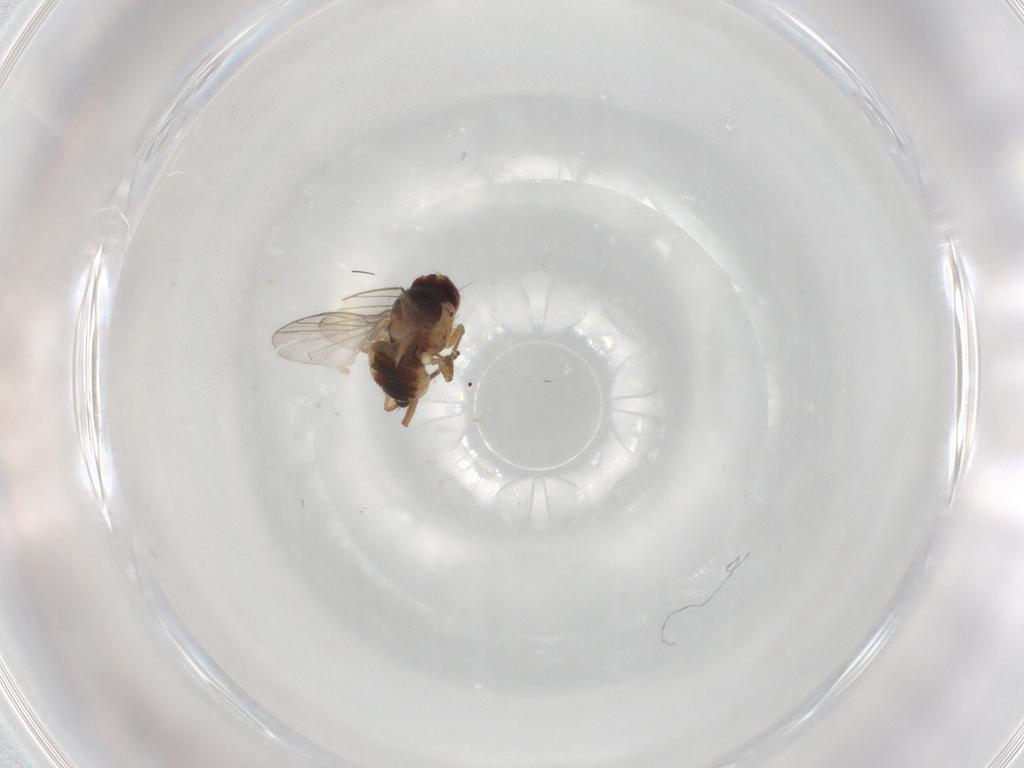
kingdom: Animalia
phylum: Arthropoda
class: Insecta
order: Diptera
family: Agromyzidae
